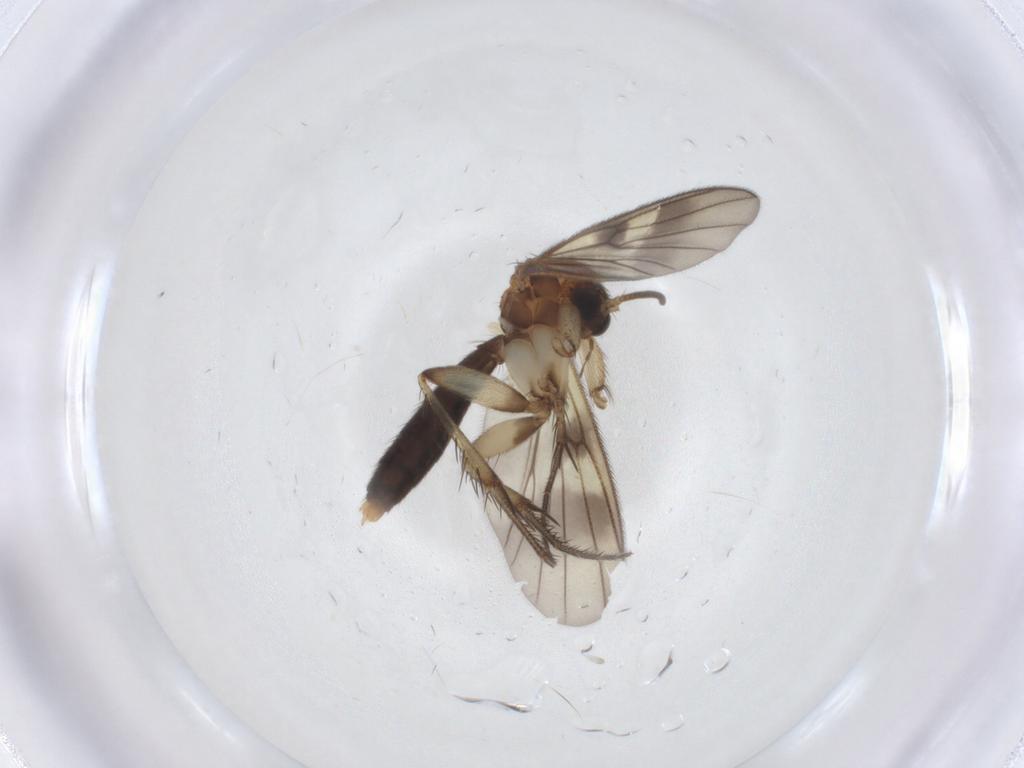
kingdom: Animalia
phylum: Arthropoda
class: Insecta
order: Diptera
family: Mycetophilidae
